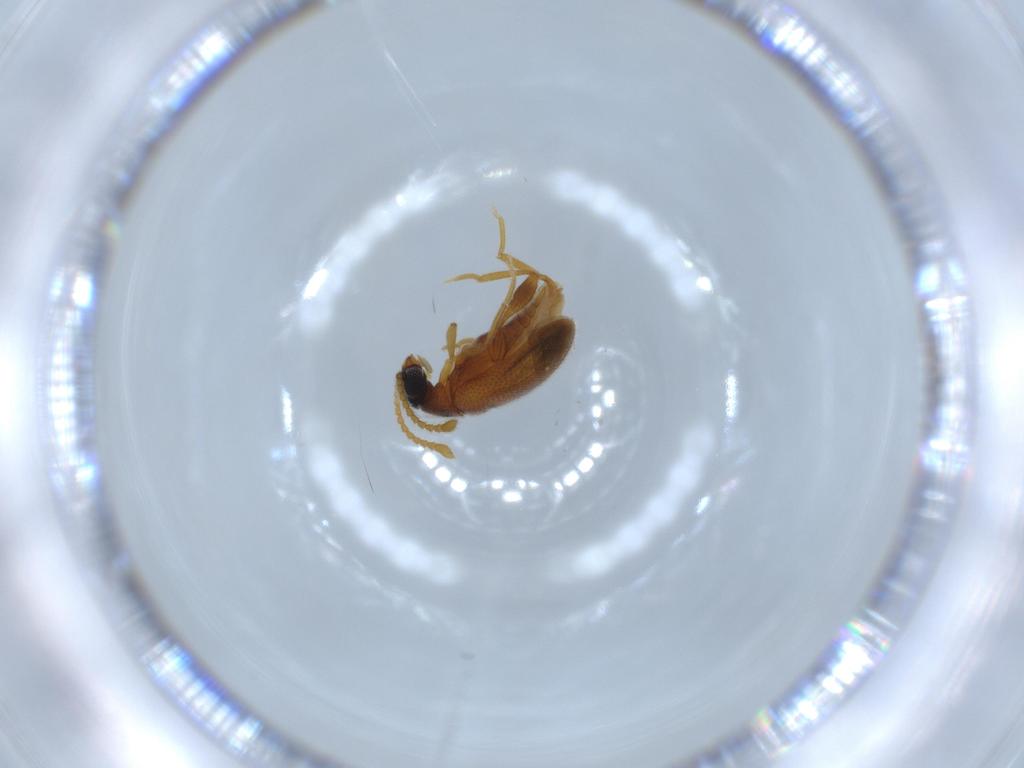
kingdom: Animalia
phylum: Arthropoda
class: Insecta
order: Coleoptera
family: Aderidae
